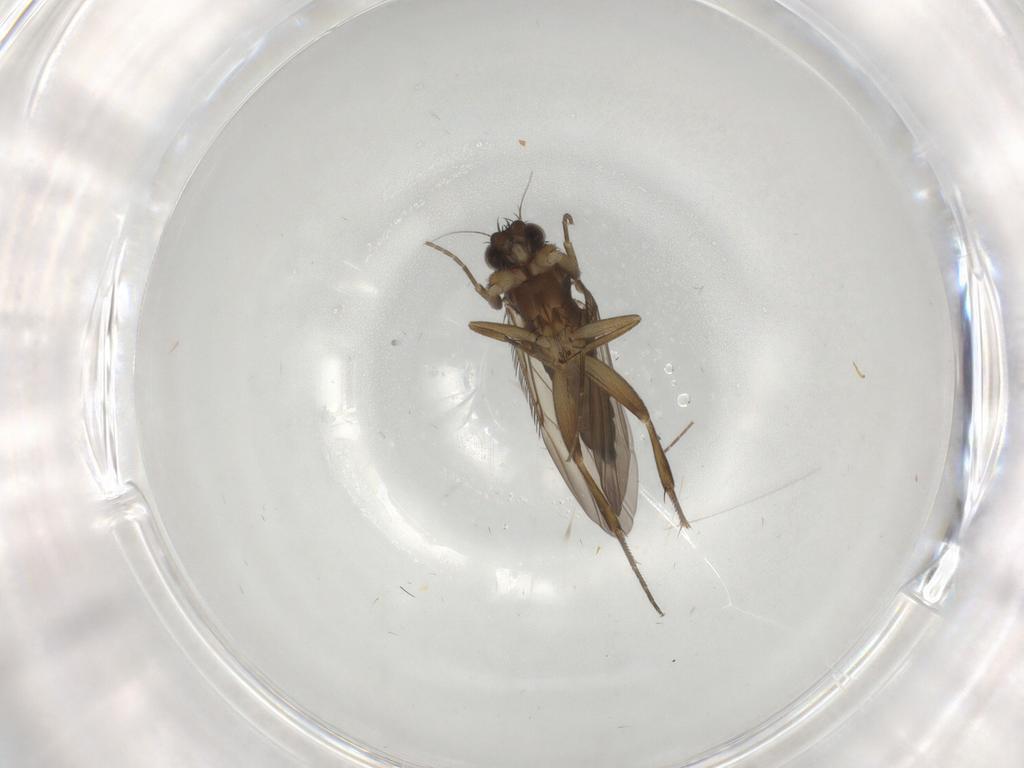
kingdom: Animalia
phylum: Arthropoda
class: Insecta
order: Diptera
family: Phoridae
